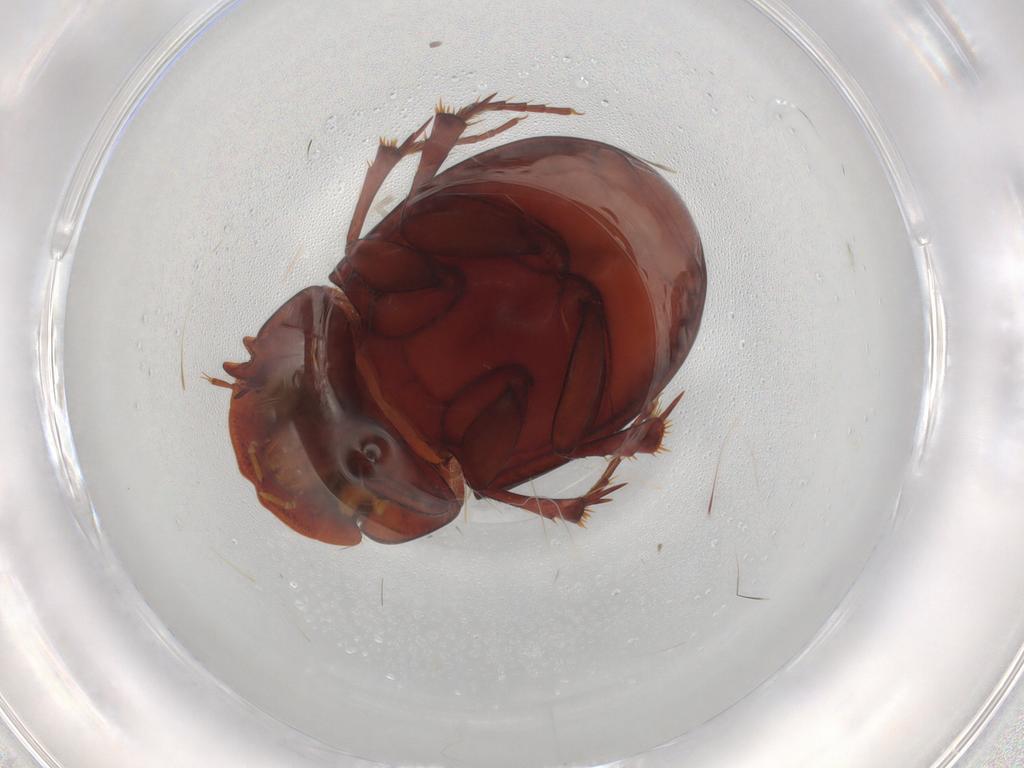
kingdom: Animalia
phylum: Arthropoda
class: Insecta
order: Coleoptera
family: Scarabaeidae
